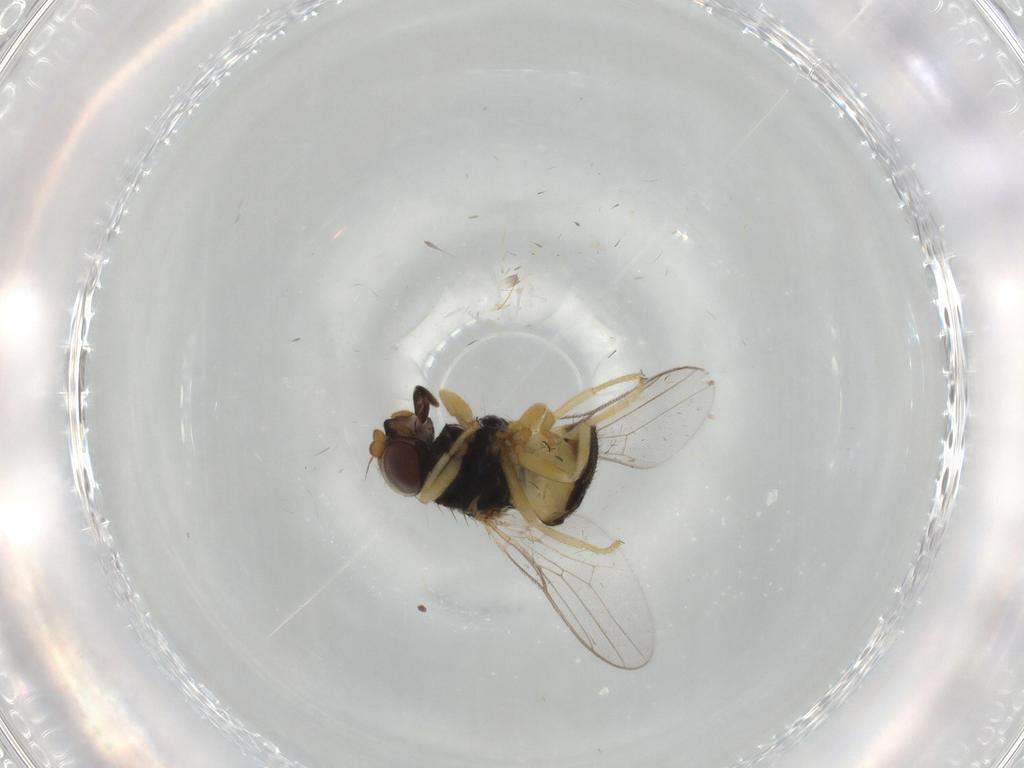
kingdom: Animalia
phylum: Arthropoda
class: Insecta
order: Diptera
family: Chloropidae
